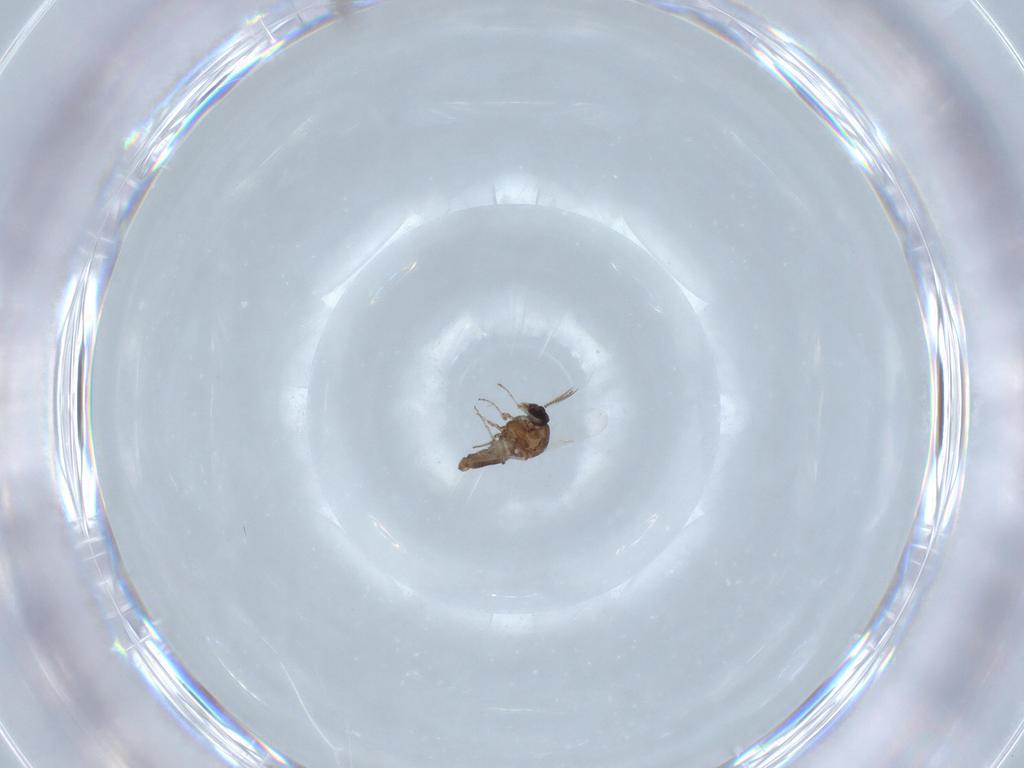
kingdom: Animalia
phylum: Arthropoda
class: Insecta
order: Diptera
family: Ceratopogonidae
